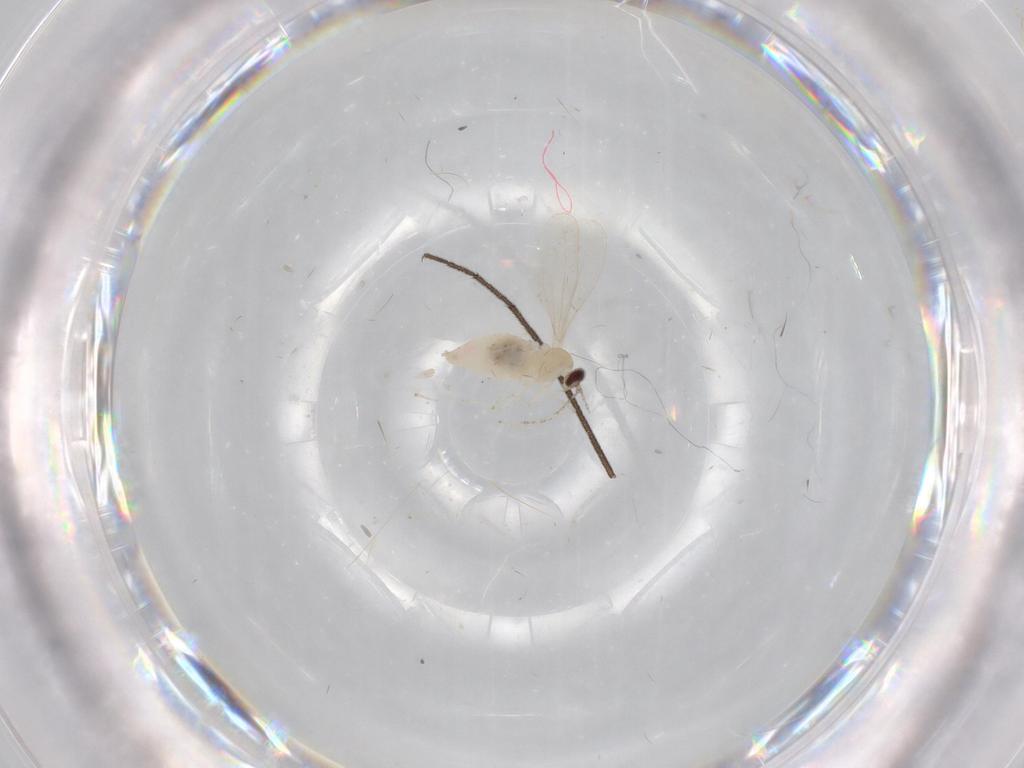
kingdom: Animalia
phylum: Arthropoda
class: Insecta
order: Diptera
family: Cecidomyiidae
